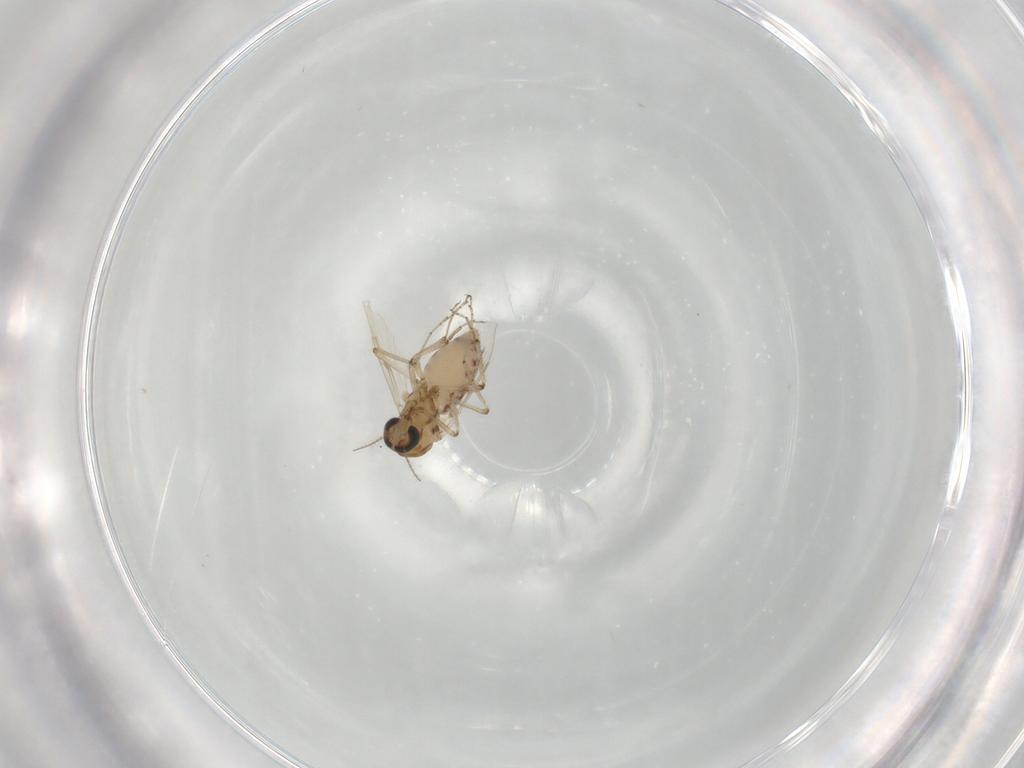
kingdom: Animalia
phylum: Arthropoda
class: Insecta
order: Diptera
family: Ceratopogonidae
